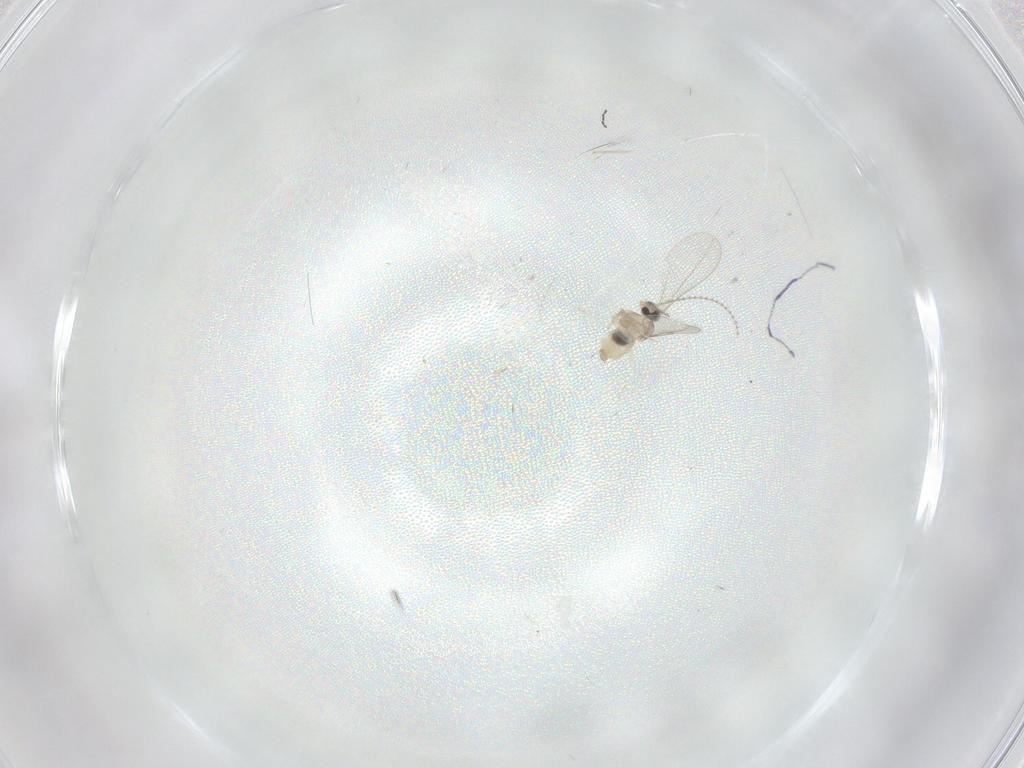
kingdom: Animalia
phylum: Arthropoda
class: Insecta
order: Diptera
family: Cecidomyiidae
